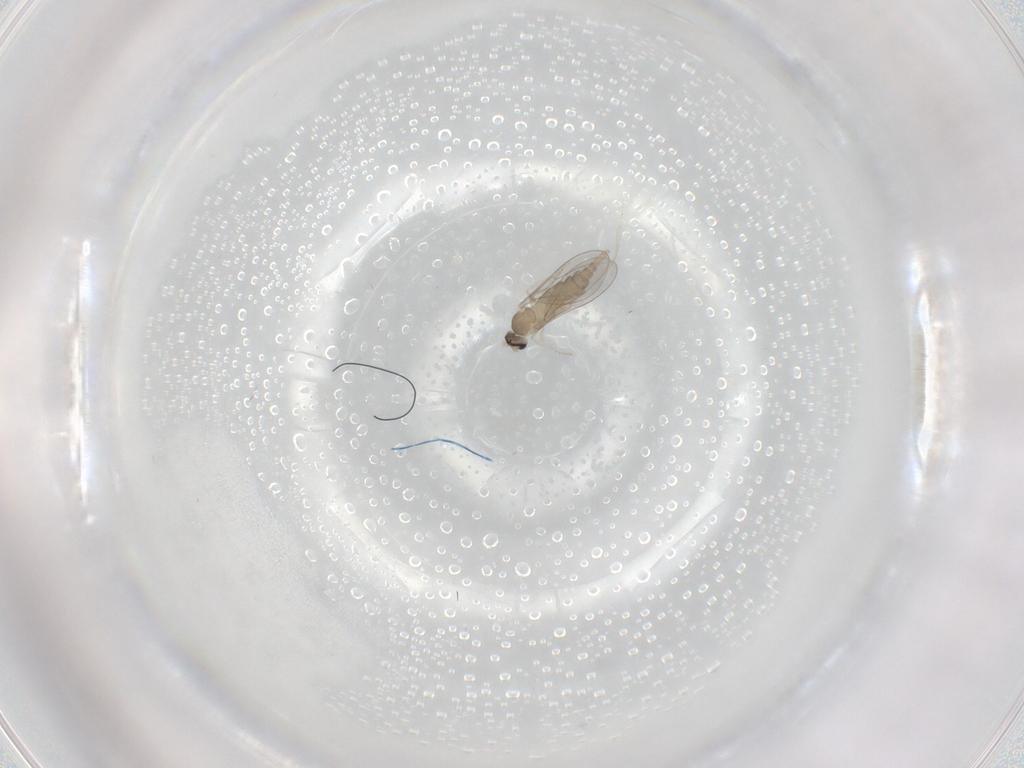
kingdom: Animalia
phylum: Arthropoda
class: Insecta
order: Diptera
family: Cecidomyiidae
